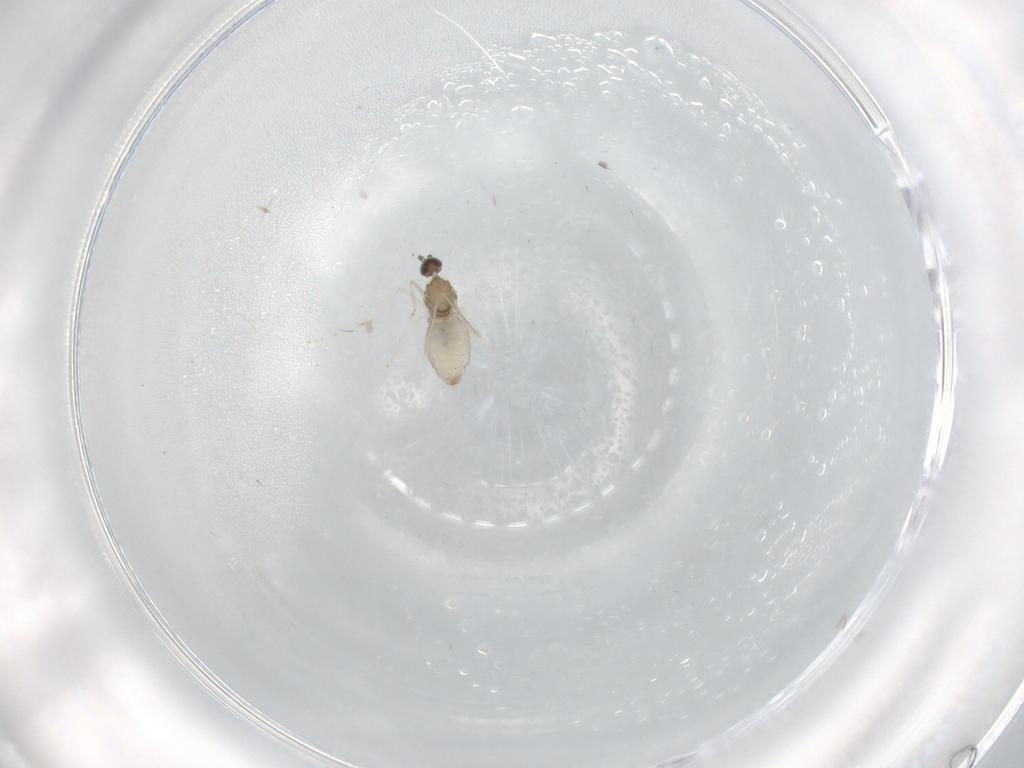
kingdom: Animalia
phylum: Arthropoda
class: Insecta
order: Diptera
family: Cecidomyiidae
